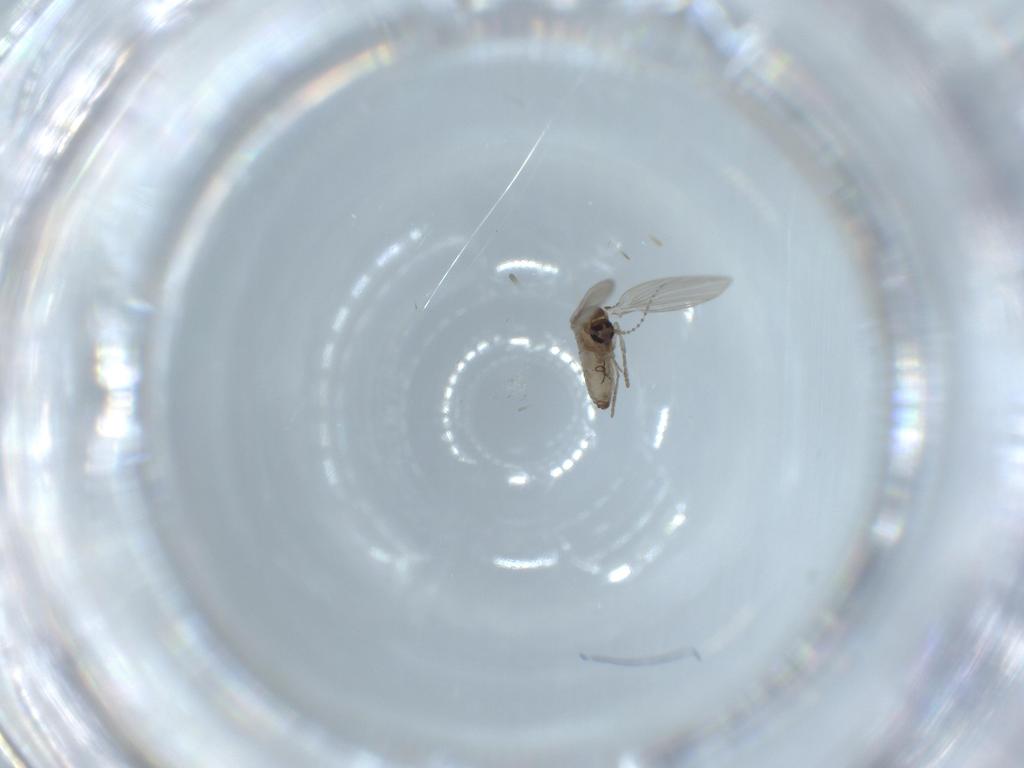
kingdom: Animalia
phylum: Arthropoda
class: Insecta
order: Diptera
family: Psychodidae
